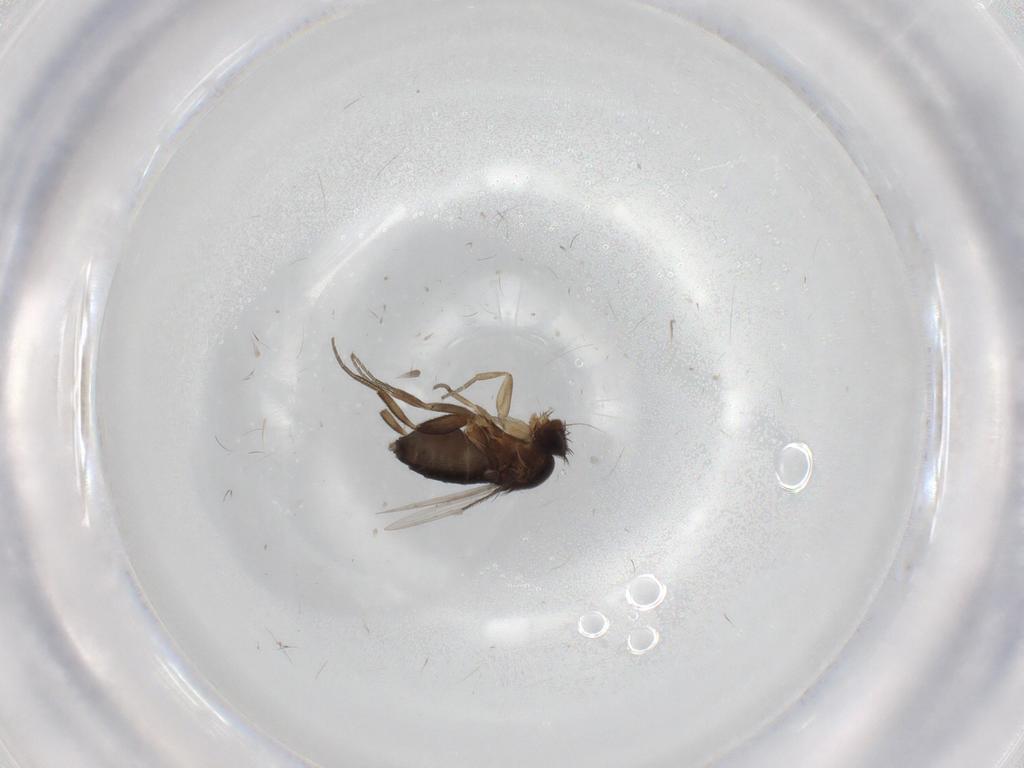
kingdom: Animalia
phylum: Arthropoda
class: Insecta
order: Diptera
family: Phoridae
